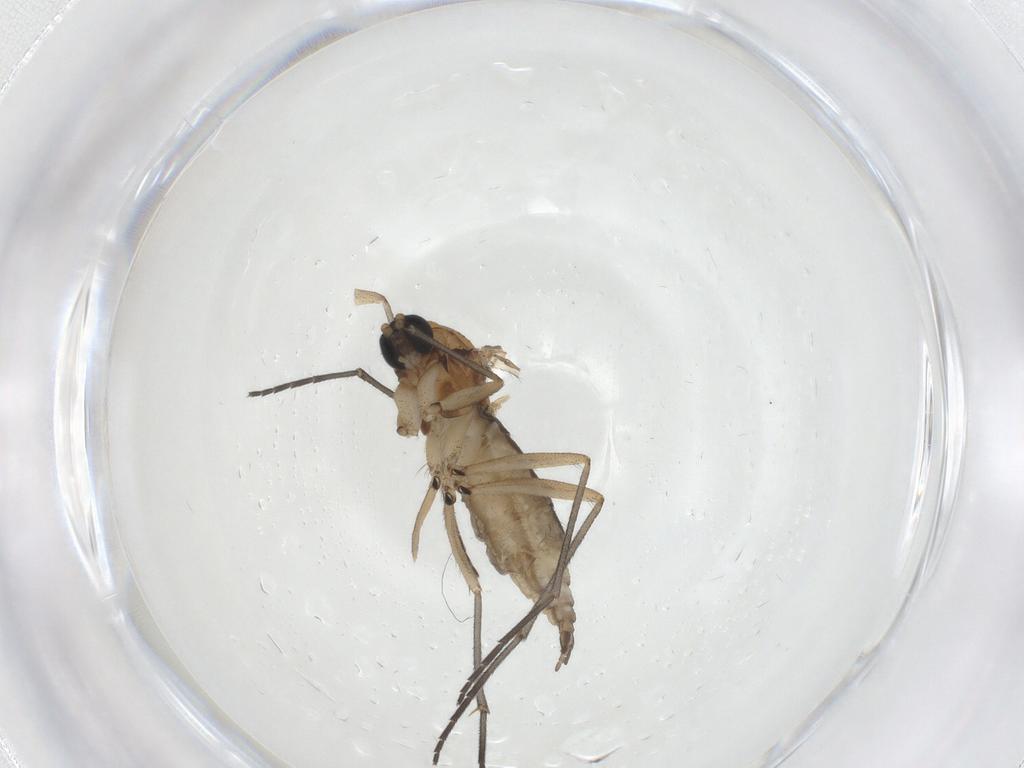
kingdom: Animalia
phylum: Arthropoda
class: Insecta
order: Diptera
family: Sciaridae
